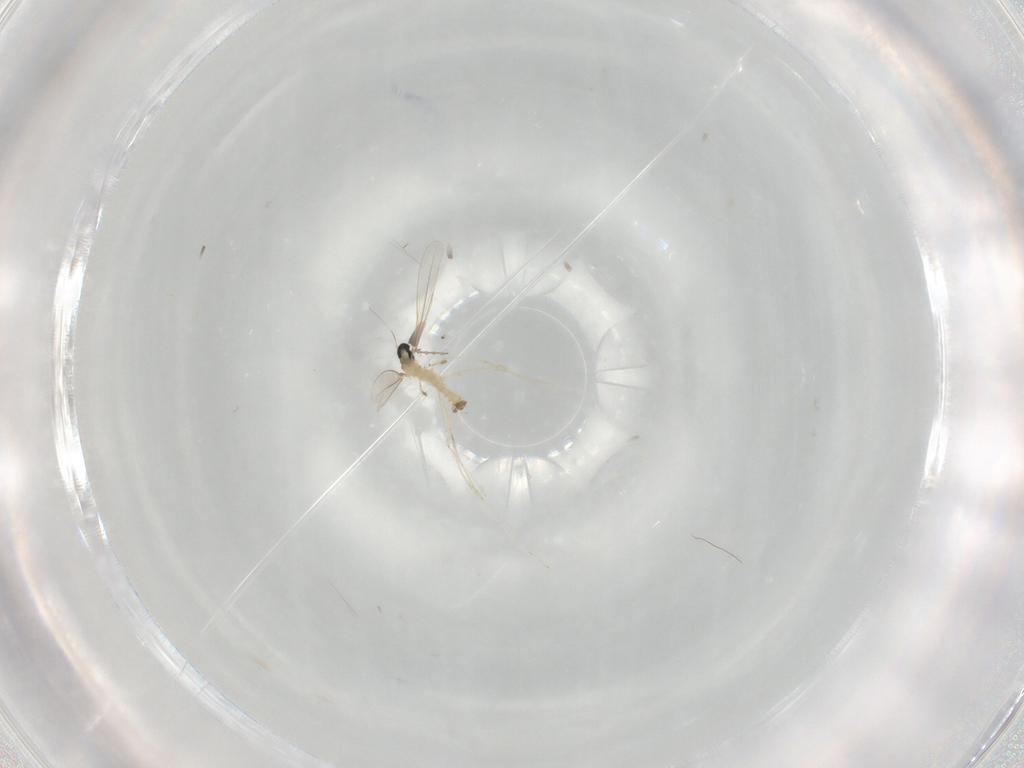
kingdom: Animalia
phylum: Arthropoda
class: Insecta
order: Diptera
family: Cecidomyiidae
